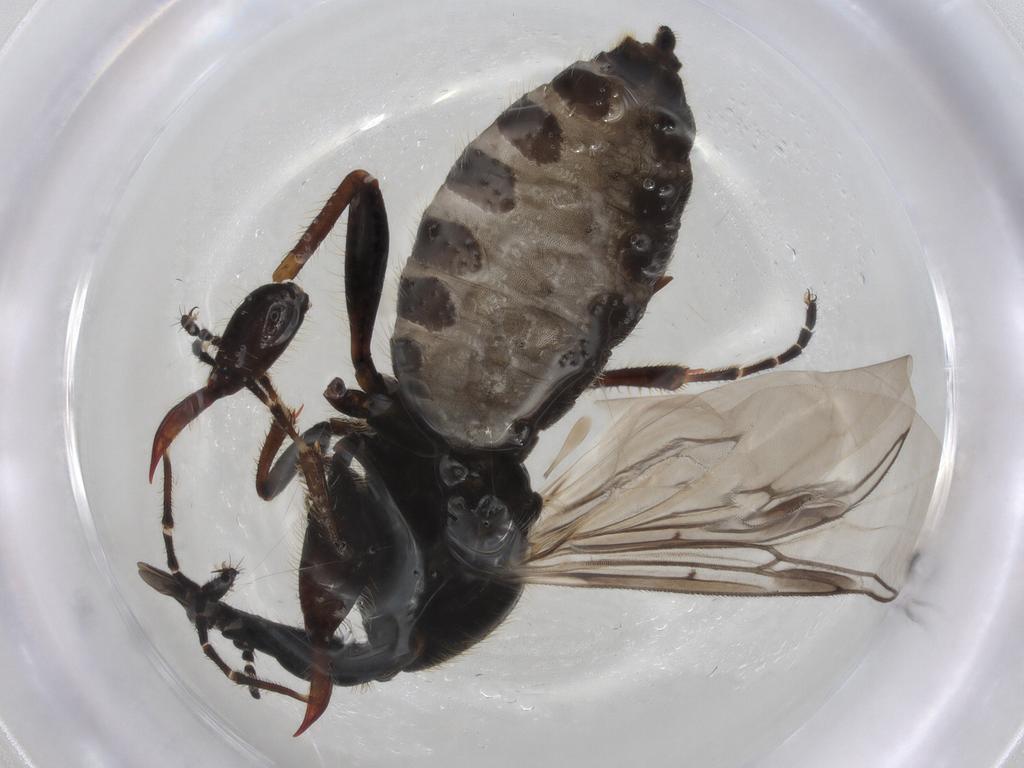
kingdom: Animalia
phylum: Arthropoda
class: Insecta
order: Diptera
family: Bibionidae
